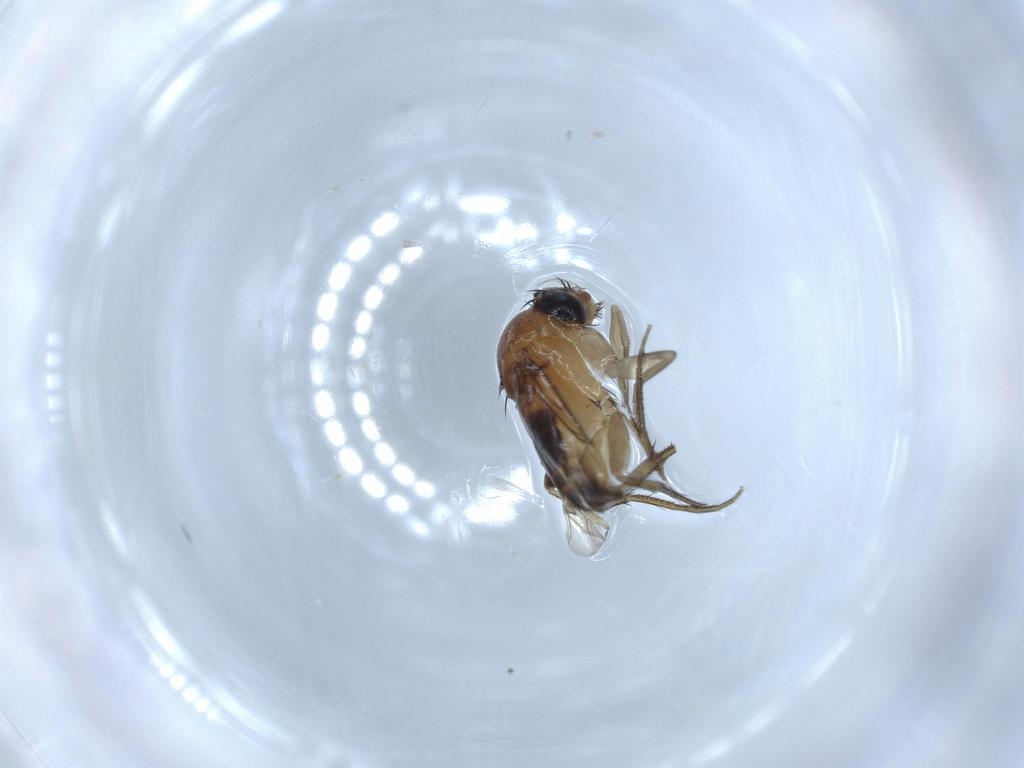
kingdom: Animalia
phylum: Arthropoda
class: Insecta
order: Diptera
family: Phoridae
